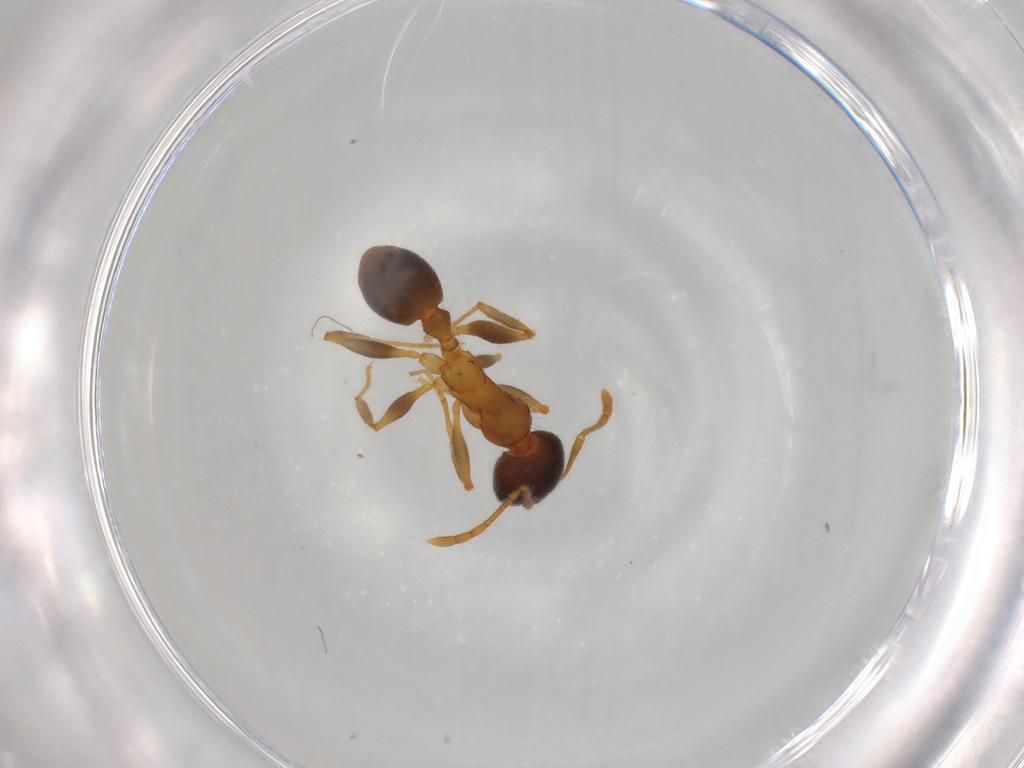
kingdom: Animalia
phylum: Arthropoda
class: Insecta
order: Hymenoptera
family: Formicidae
